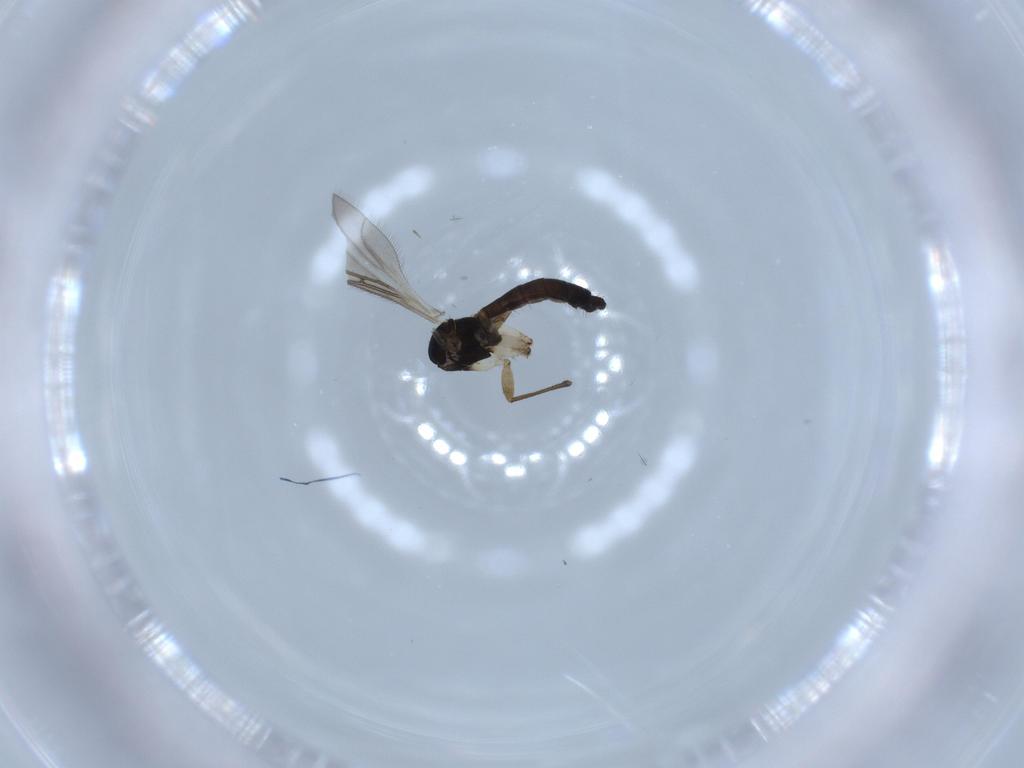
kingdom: Animalia
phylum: Arthropoda
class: Insecta
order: Diptera
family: Sciaridae
